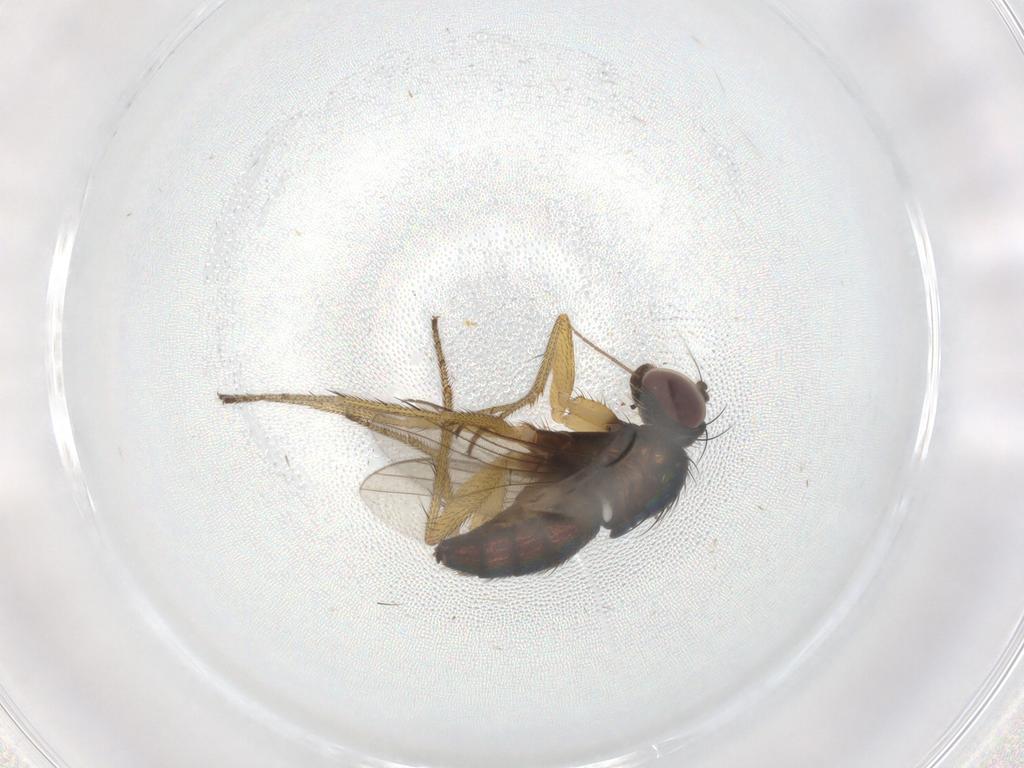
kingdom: Animalia
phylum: Arthropoda
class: Insecta
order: Diptera
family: Dolichopodidae
